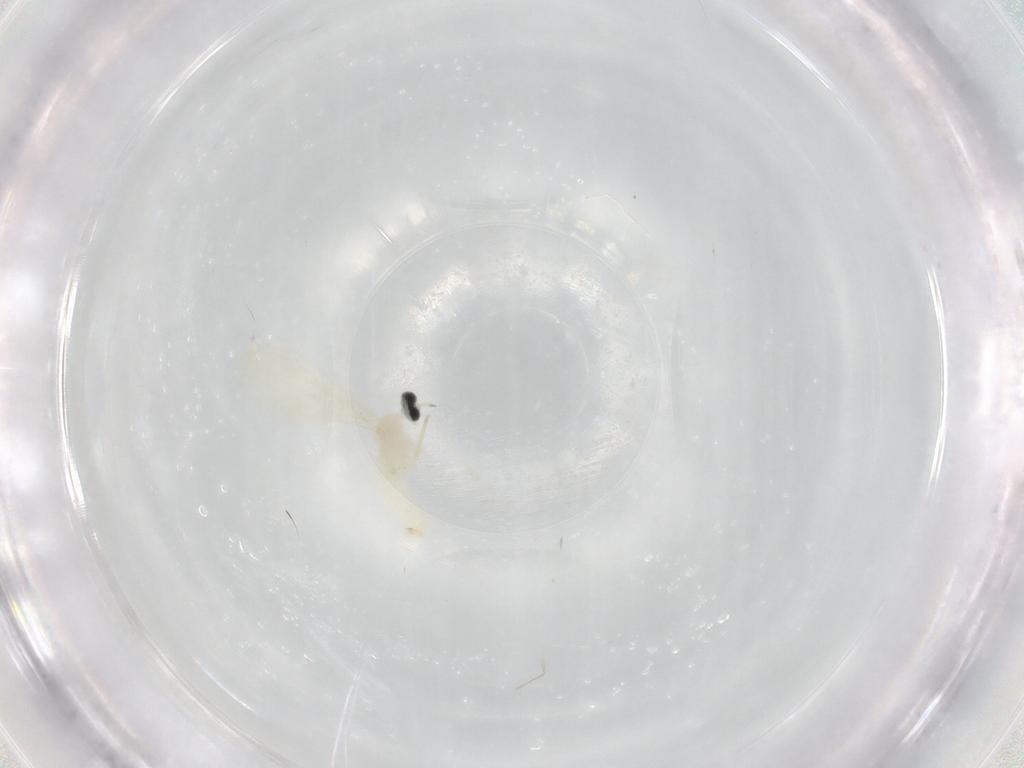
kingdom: Animalia
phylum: Arthropoda
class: Insecta
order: Diptera
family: Cecidomyiidae
